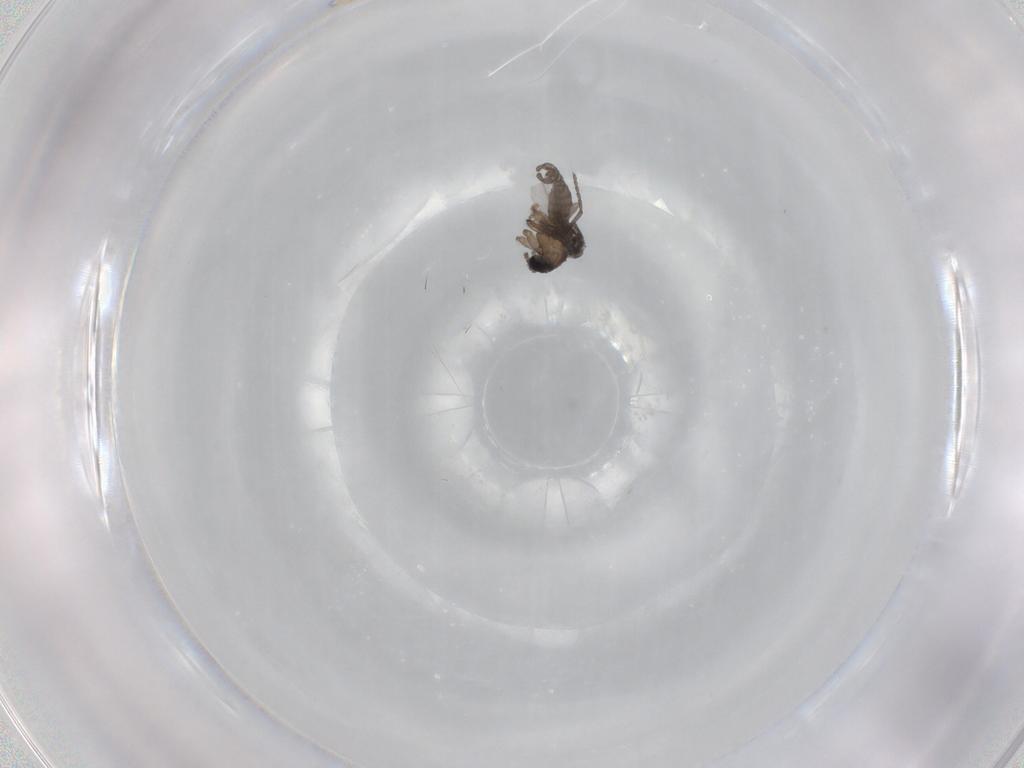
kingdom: Animalia
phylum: Arthropoda
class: Insecta
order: Diptera
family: Sciaridae
